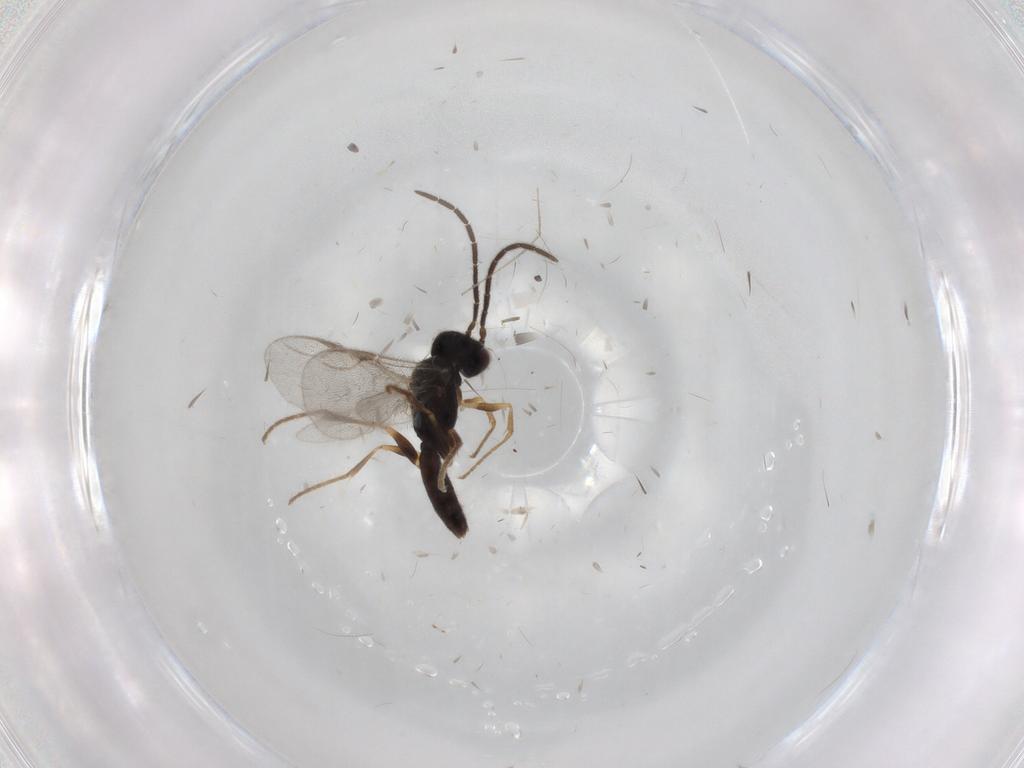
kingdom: Animalia
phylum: Arthropoda
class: Insecta
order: Hymenoptera
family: Dryinidae
